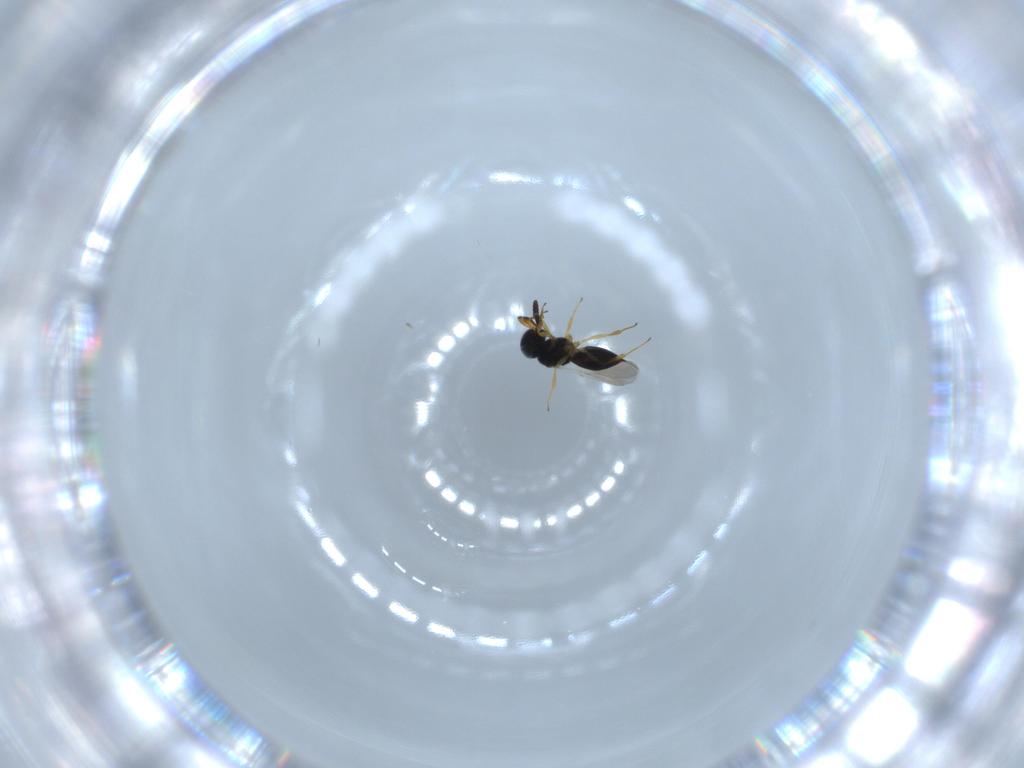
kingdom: Animalia
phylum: Arthropoda
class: Insecta
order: Hymenoptera
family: Scelionidae
